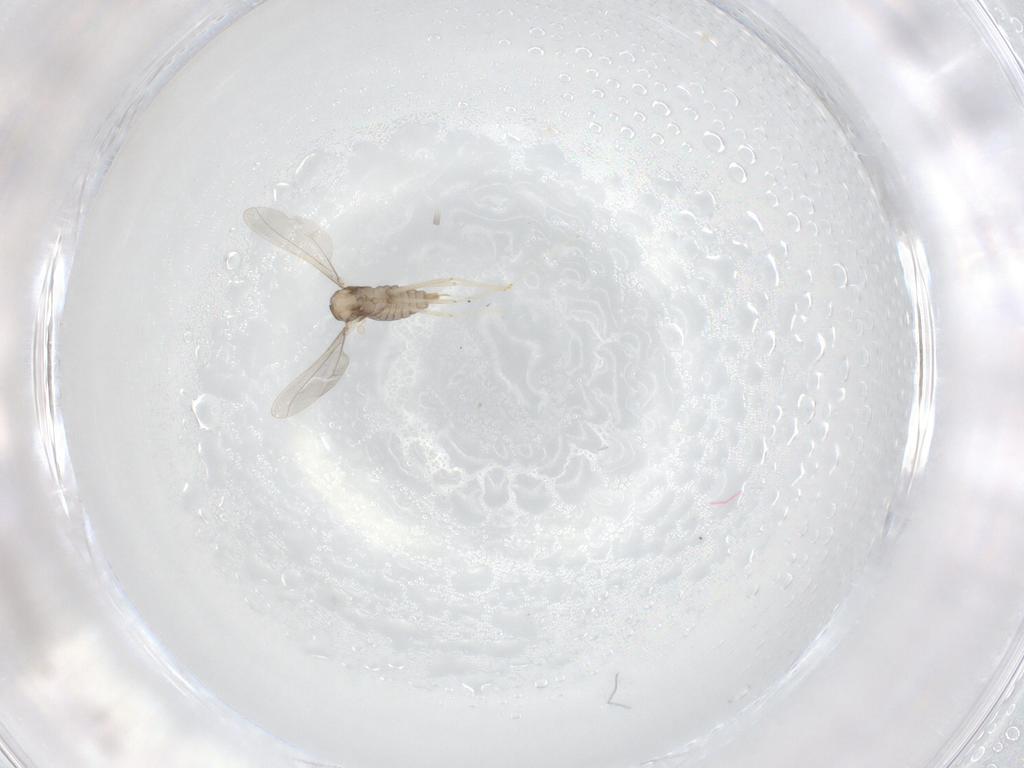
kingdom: Animalia
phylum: Arthropoda
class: Insecta
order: Diptera
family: Cecidomyiidae
